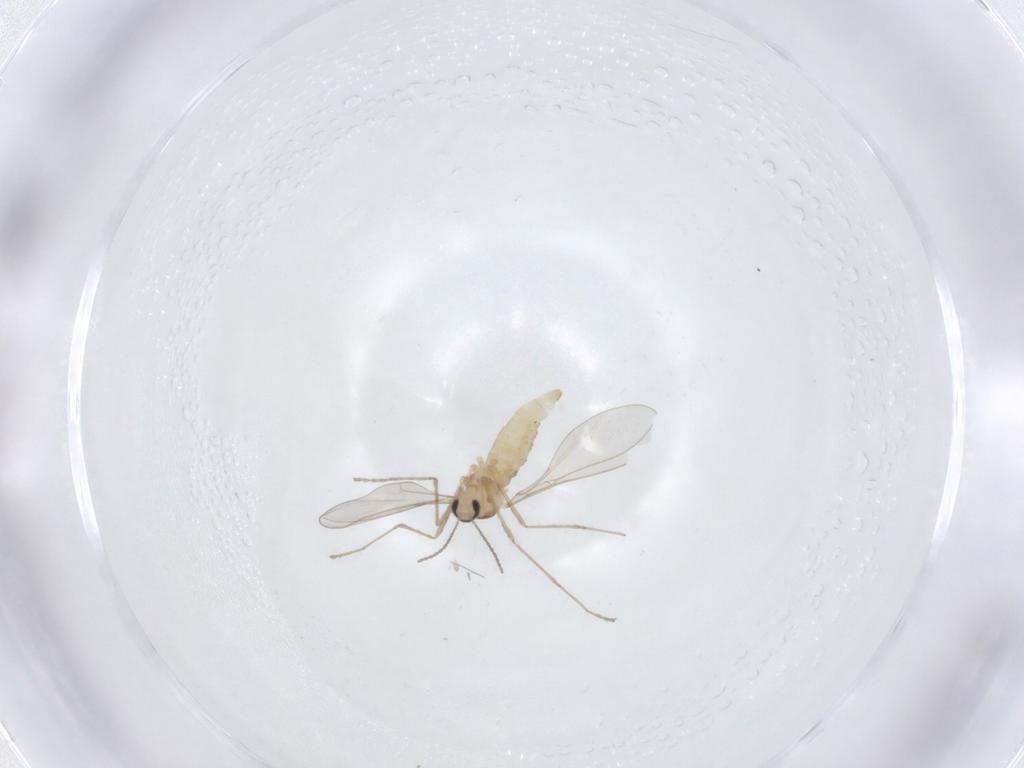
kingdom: Animalia
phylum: Arthropoda
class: Insecta
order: Diptera
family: Cecidomyiidae
